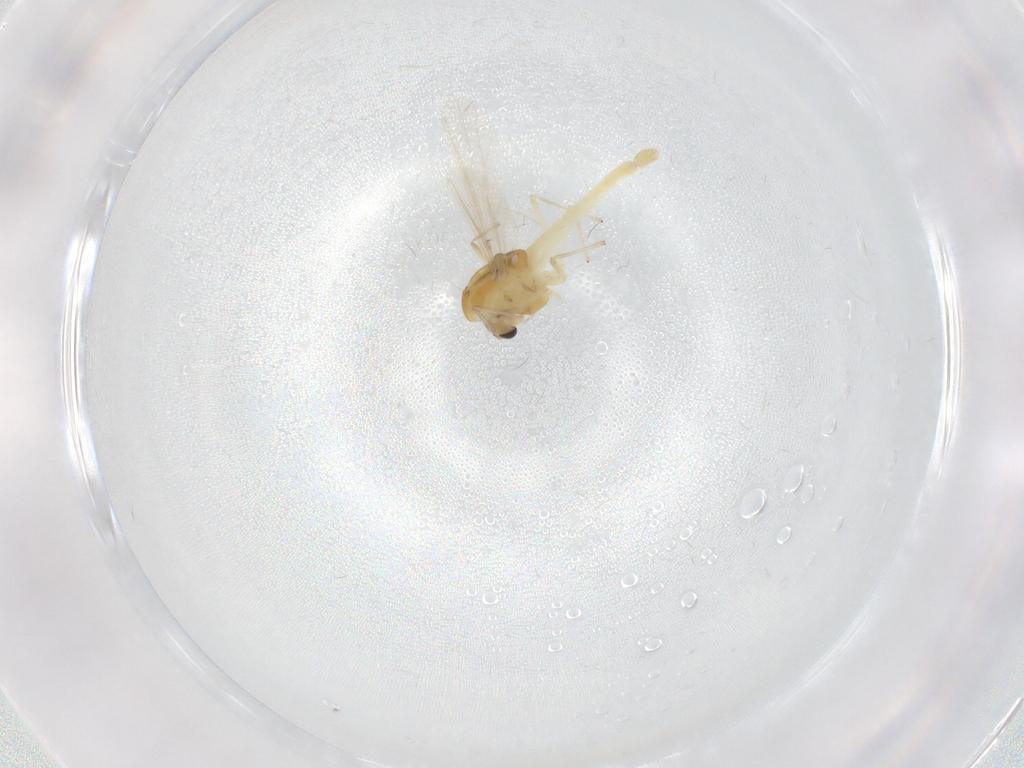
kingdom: Animalia
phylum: Arthropoda
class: Insecta
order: Diptera
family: Chironomidae
